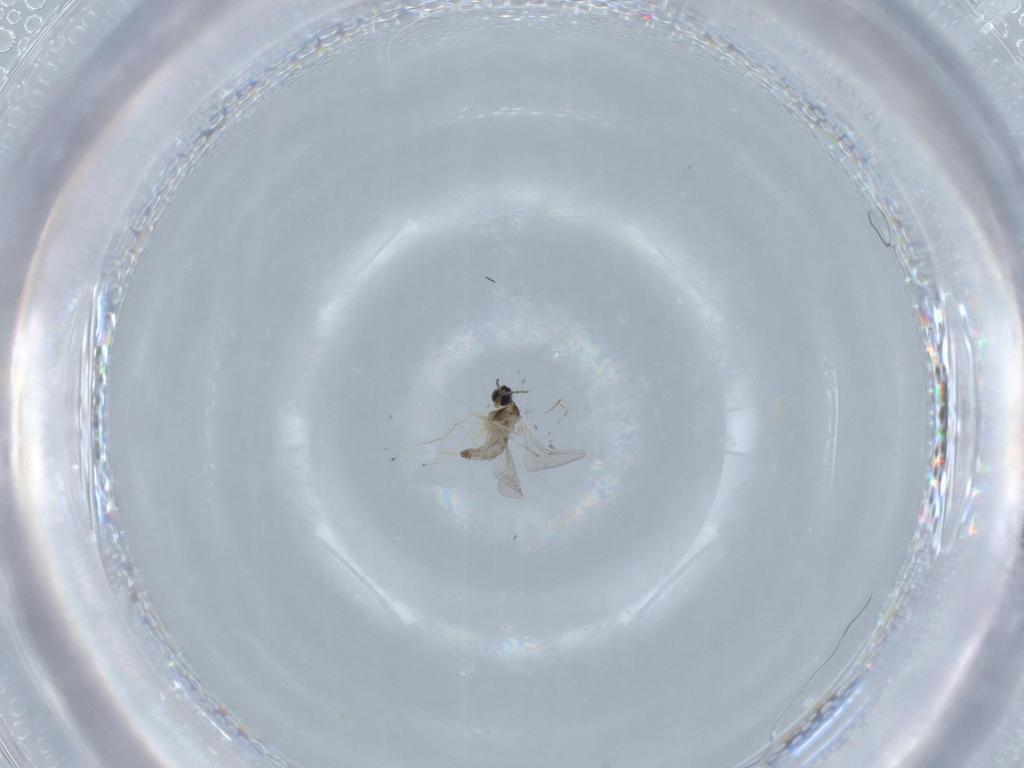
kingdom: Animalia
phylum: Arthropoda
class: Insecta
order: Diptera
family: Cecidomyiidae
